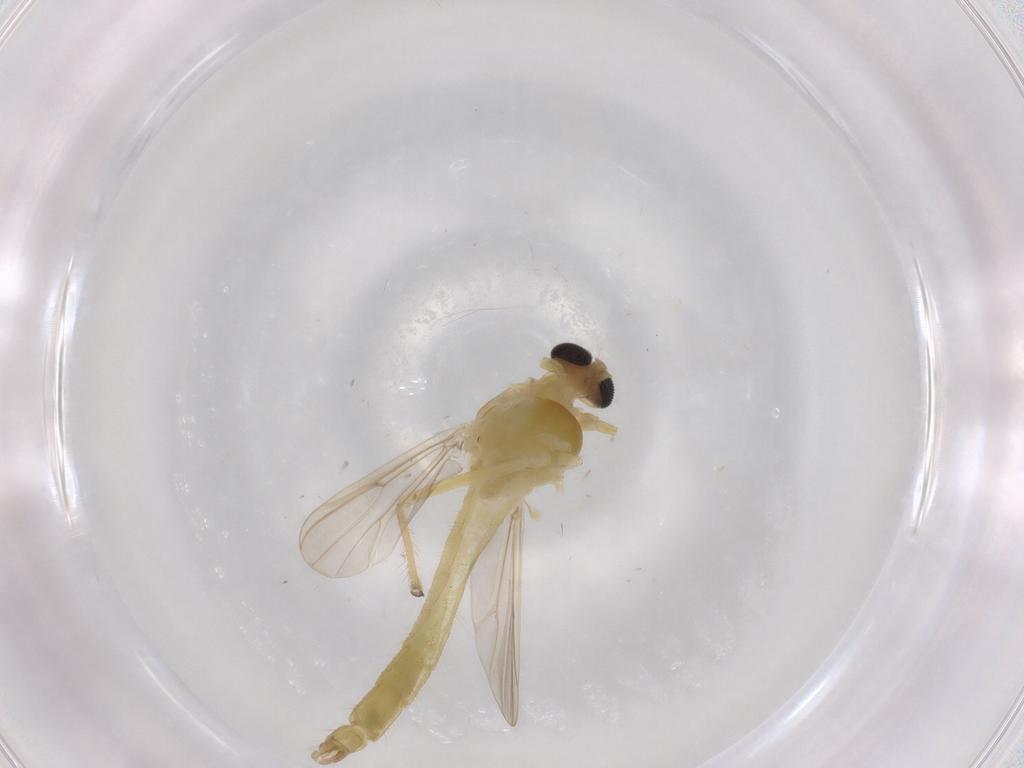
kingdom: Animalia
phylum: Arthropoda
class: Insecta
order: Diptera
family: Chironomidae
